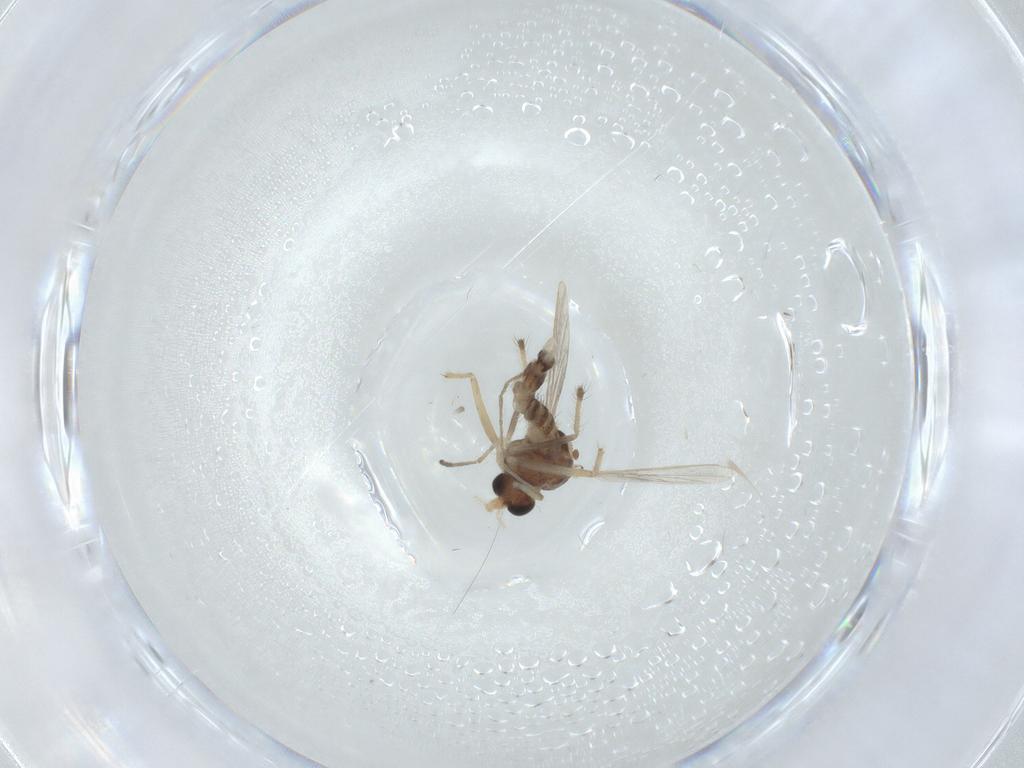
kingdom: Animalia
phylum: Arthropoda
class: Insecta
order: Diptera
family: Chironomidae
